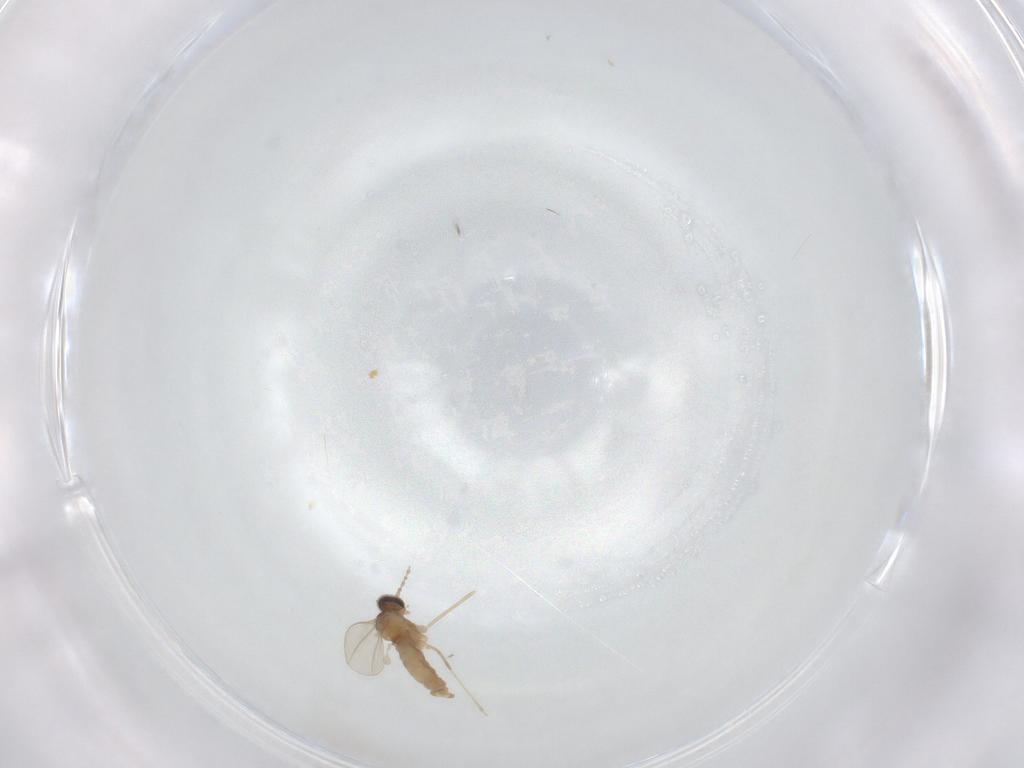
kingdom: Animalia
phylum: Arthropoda
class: Insecta
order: Diptera
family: Cecidomyiidae
